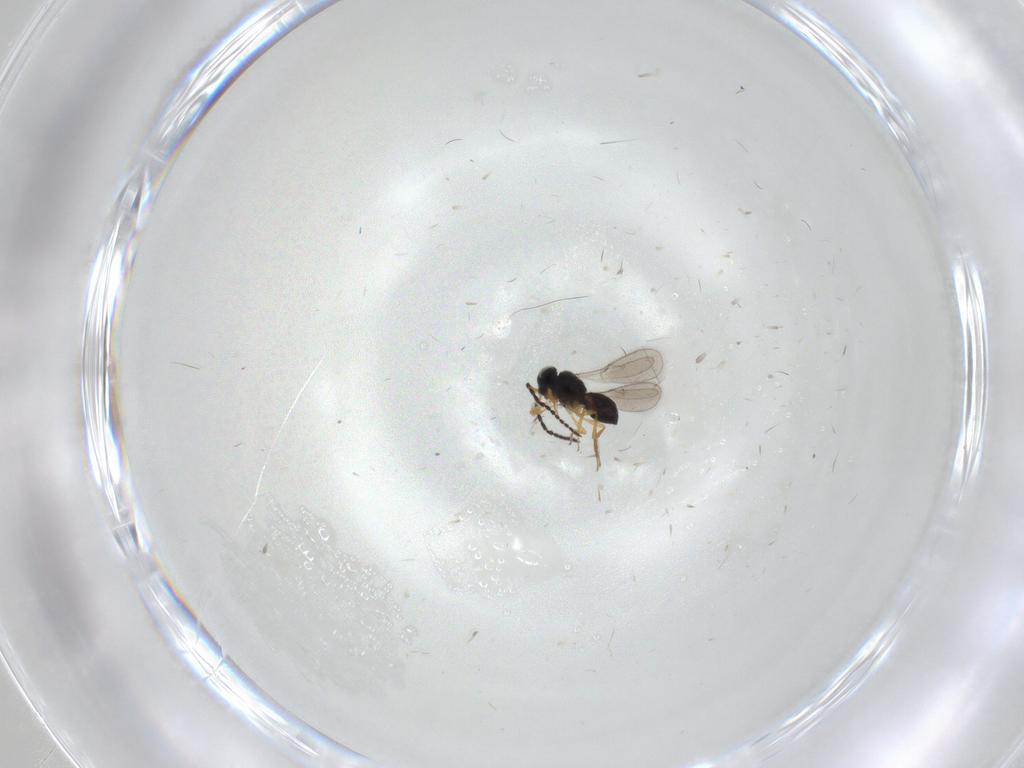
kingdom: Animalia
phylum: Arthropoda
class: Insecta
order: Hymenoptera
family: Scelionidae
